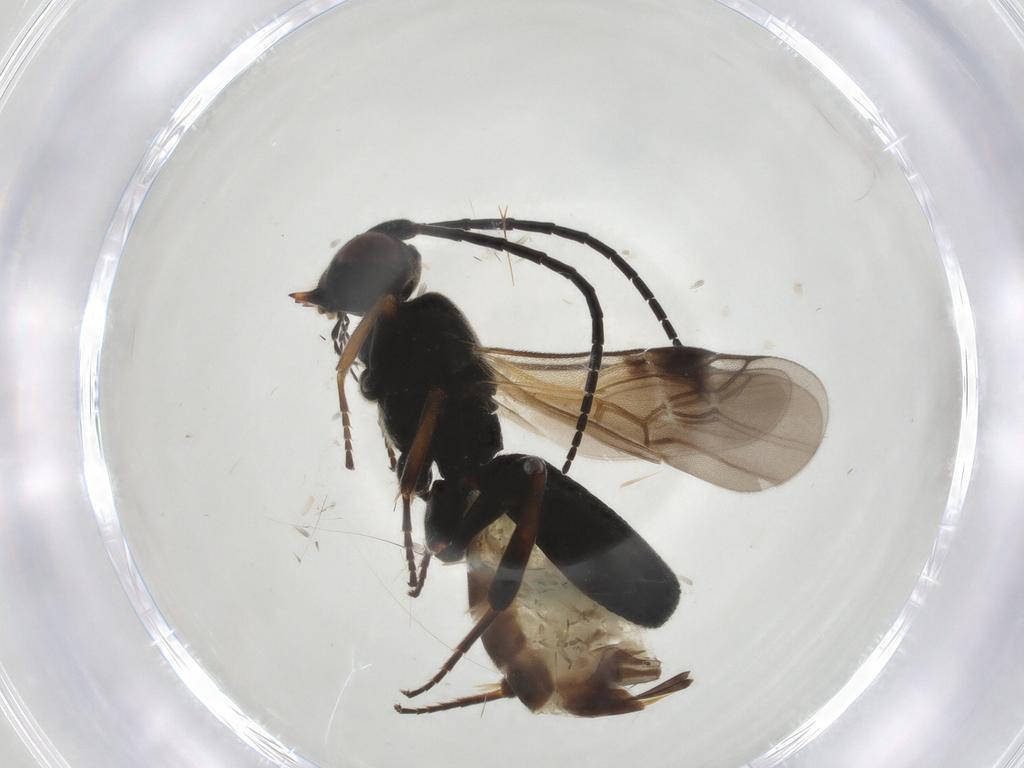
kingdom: Animalia
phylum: Arthropoda
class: Insecta
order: Hymenoptera
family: Braconidae
